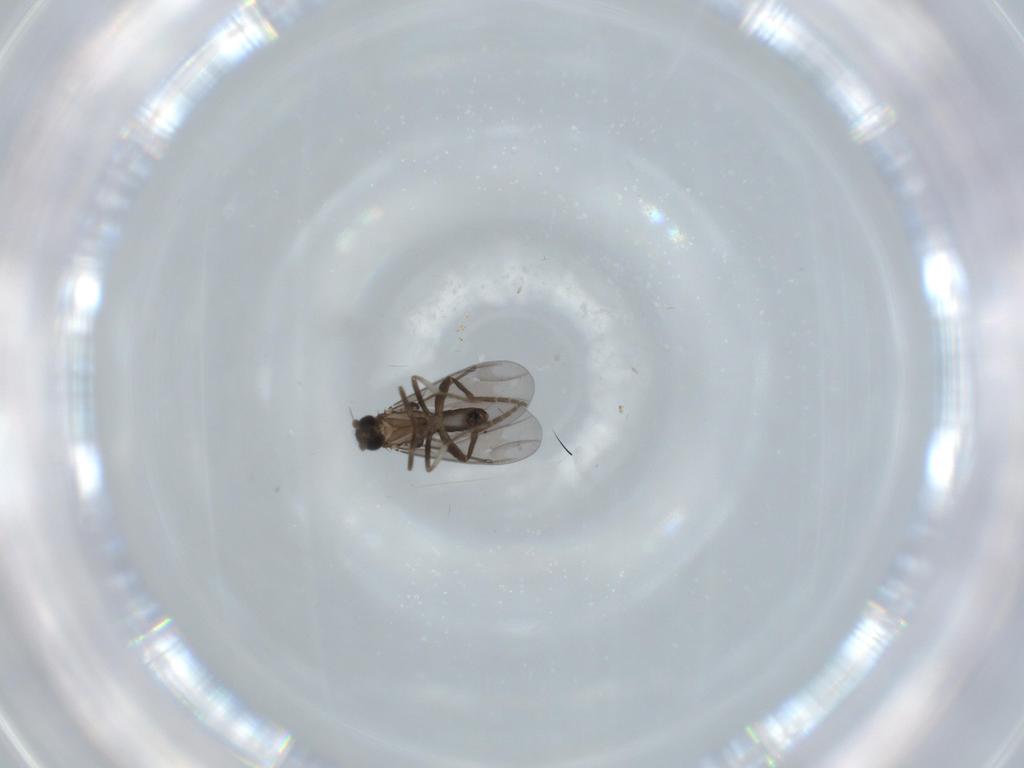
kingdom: Animalia
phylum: Arthropoda
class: Insecta
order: Diptera
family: Phoridae
